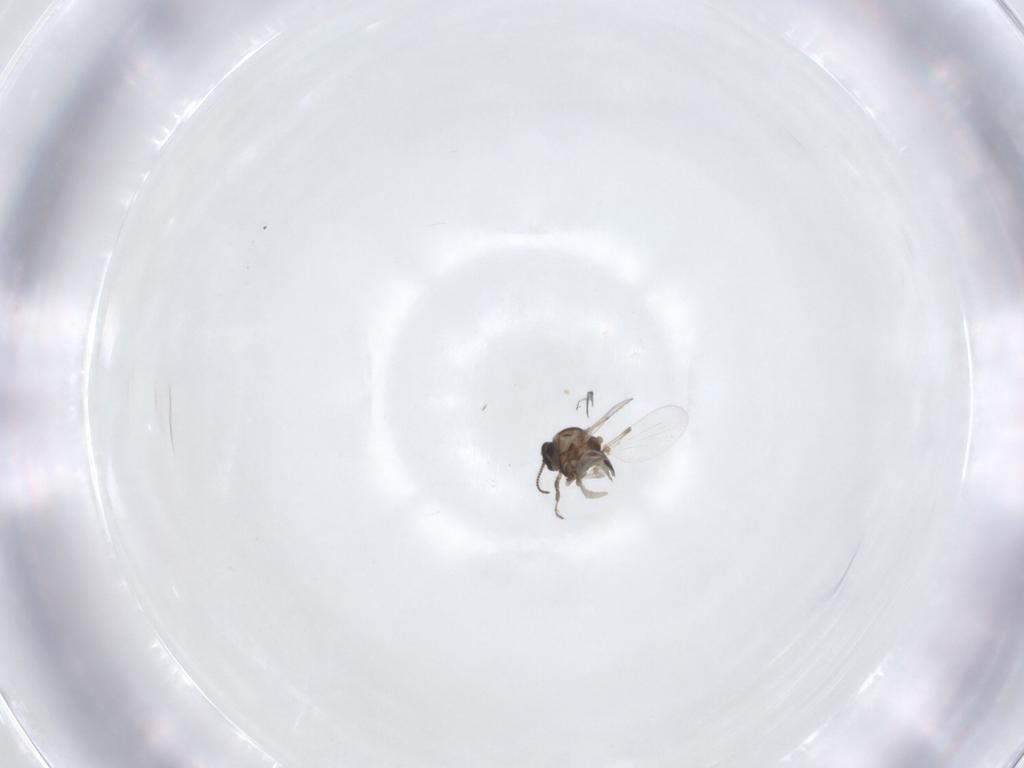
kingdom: Animalia
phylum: Arthropoda
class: Insecta
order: Diptera
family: Ceratopogonidae
